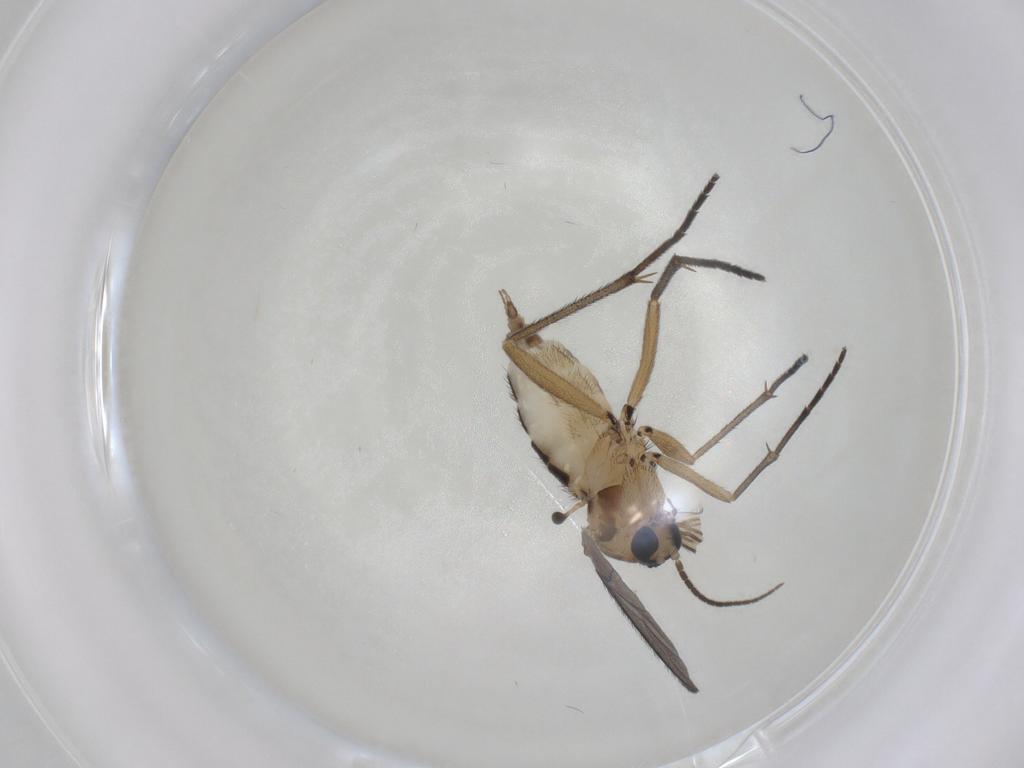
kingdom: Animalia
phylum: Arthropoda
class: Insecta
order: Diptera
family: Sciaridae
